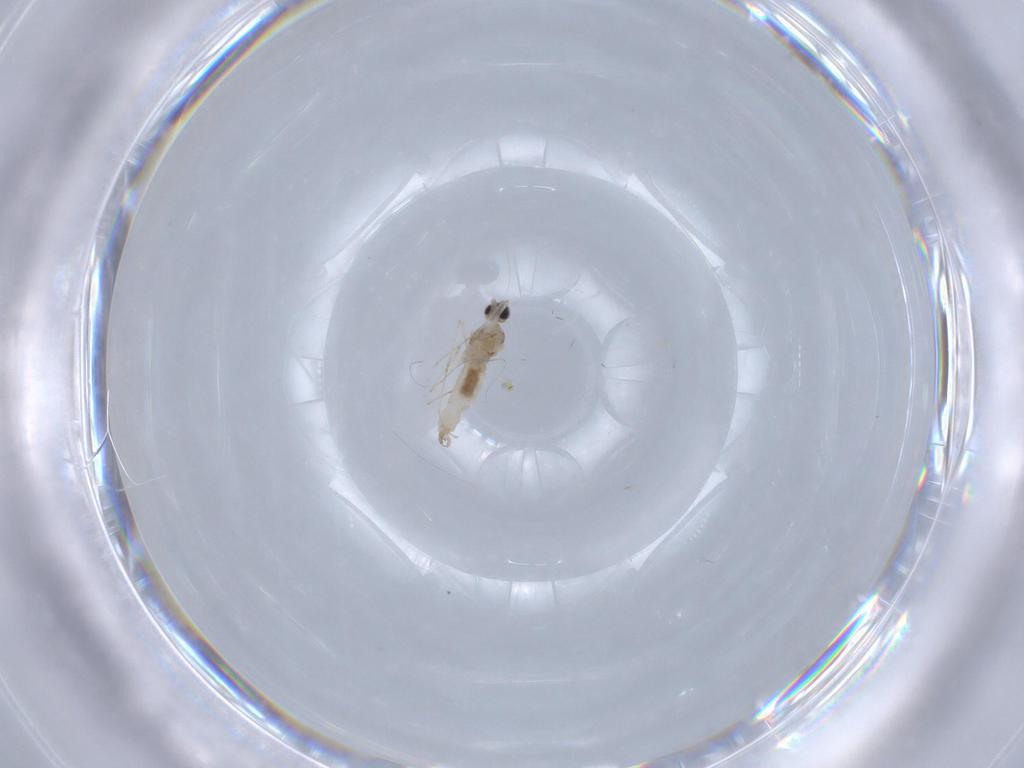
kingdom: Animalia
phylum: Arthropoda
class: Insecta
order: Diptera
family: Cecidomyiidae
